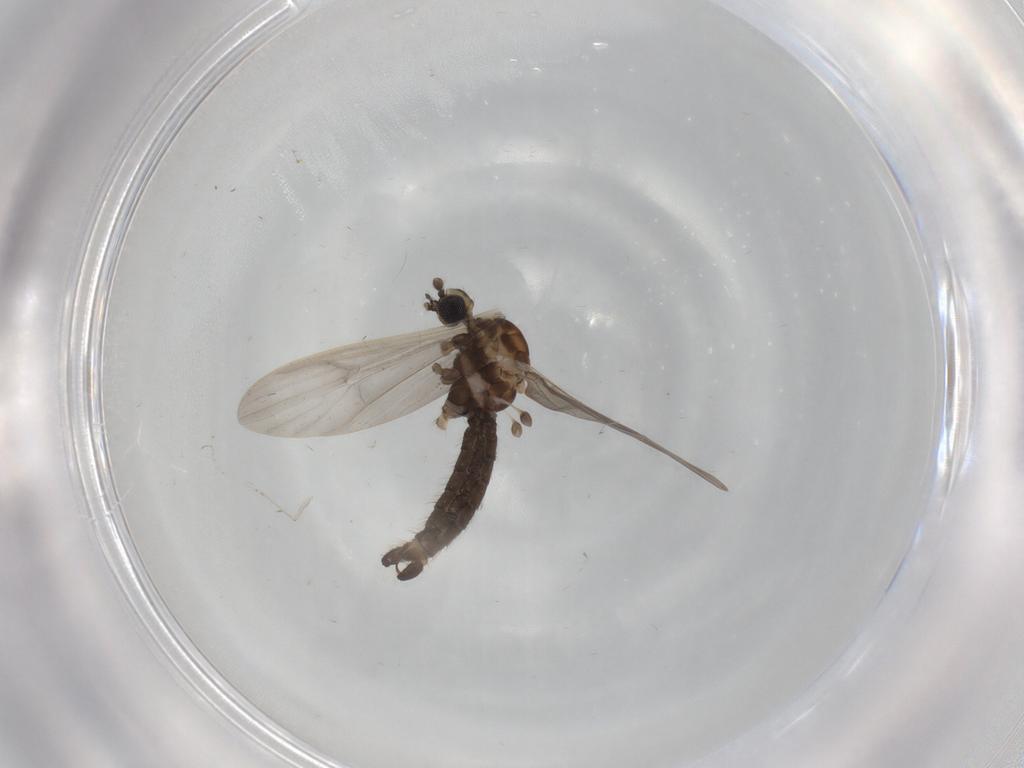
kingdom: Animalia
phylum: Arthropoda
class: Insecta
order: Diptera
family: Limoniidae
